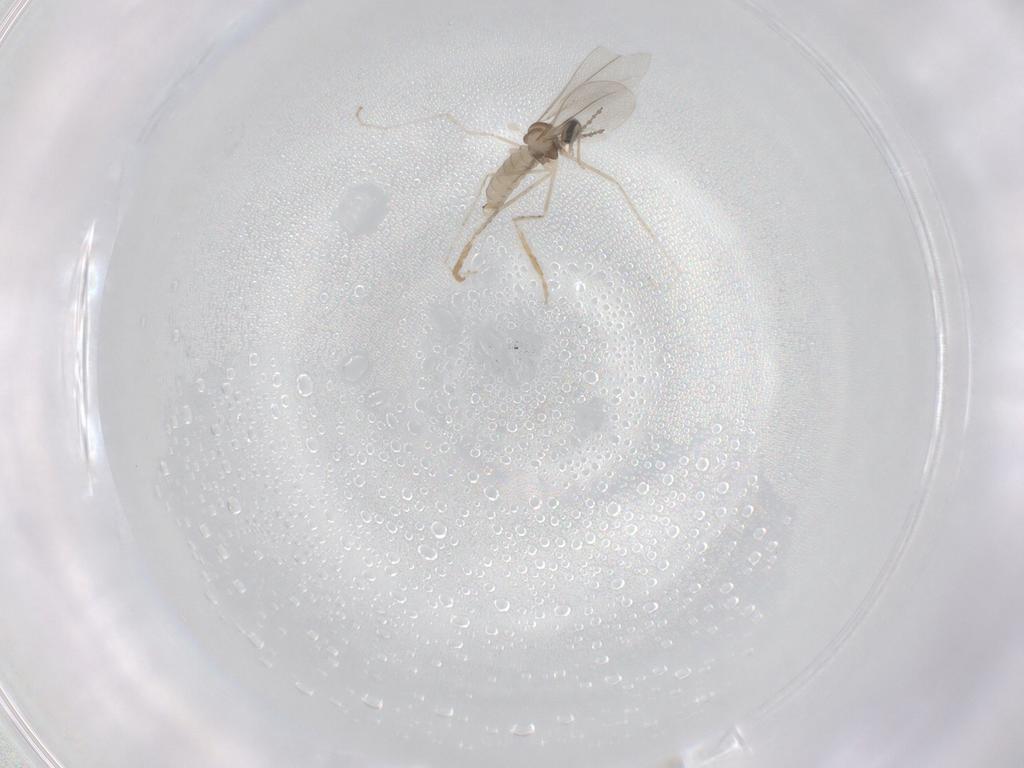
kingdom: Animalia
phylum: Arthropoda
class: Insecta
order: Diptera
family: Cecidomyiidae
